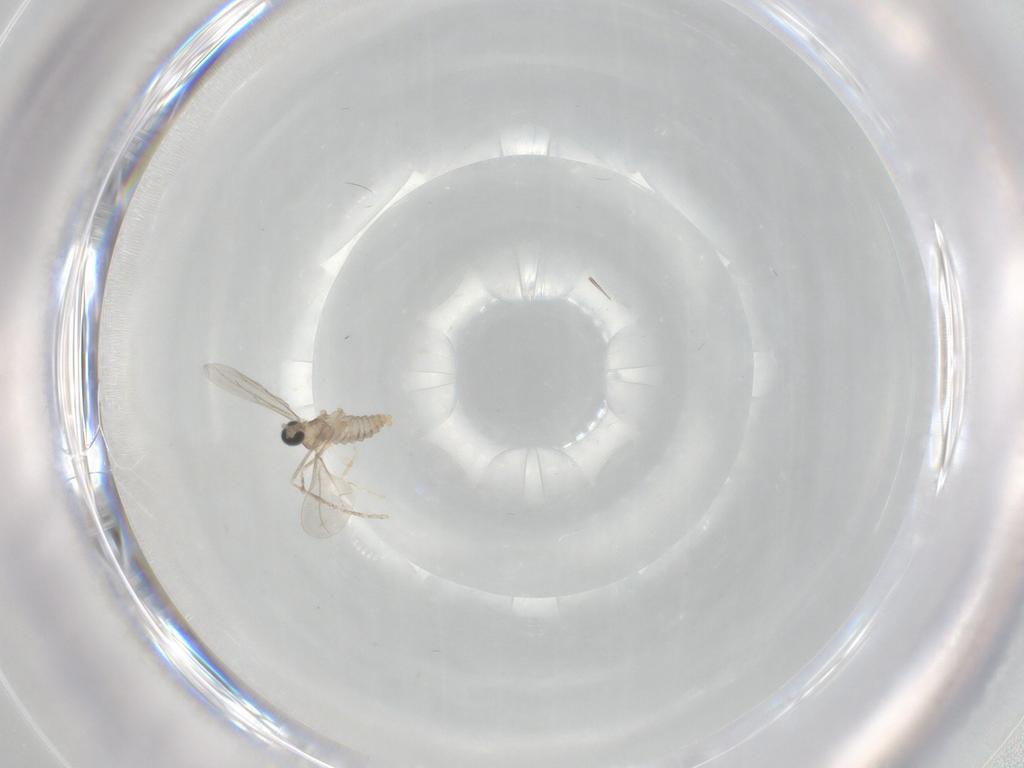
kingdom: Animalia
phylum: Arthropoda
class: Insecta
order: Diptera
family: Cecidomyiidae
